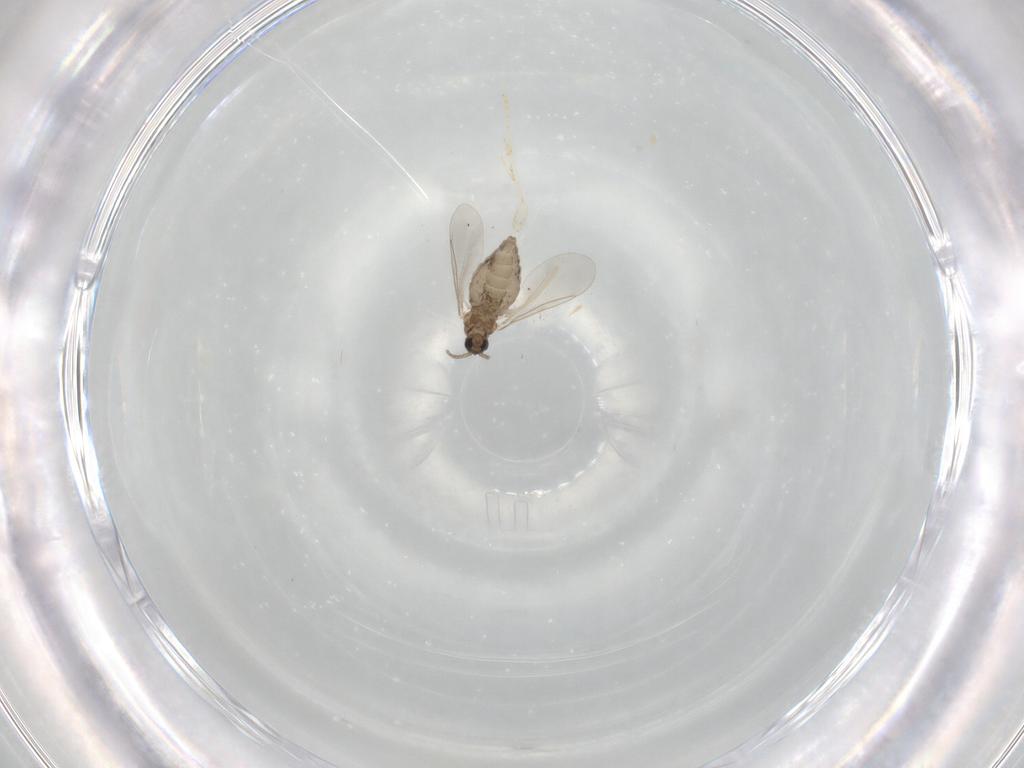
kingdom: Animalia
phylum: Arthropoda
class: Insecta
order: Diptera
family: Cecidomyiidae
